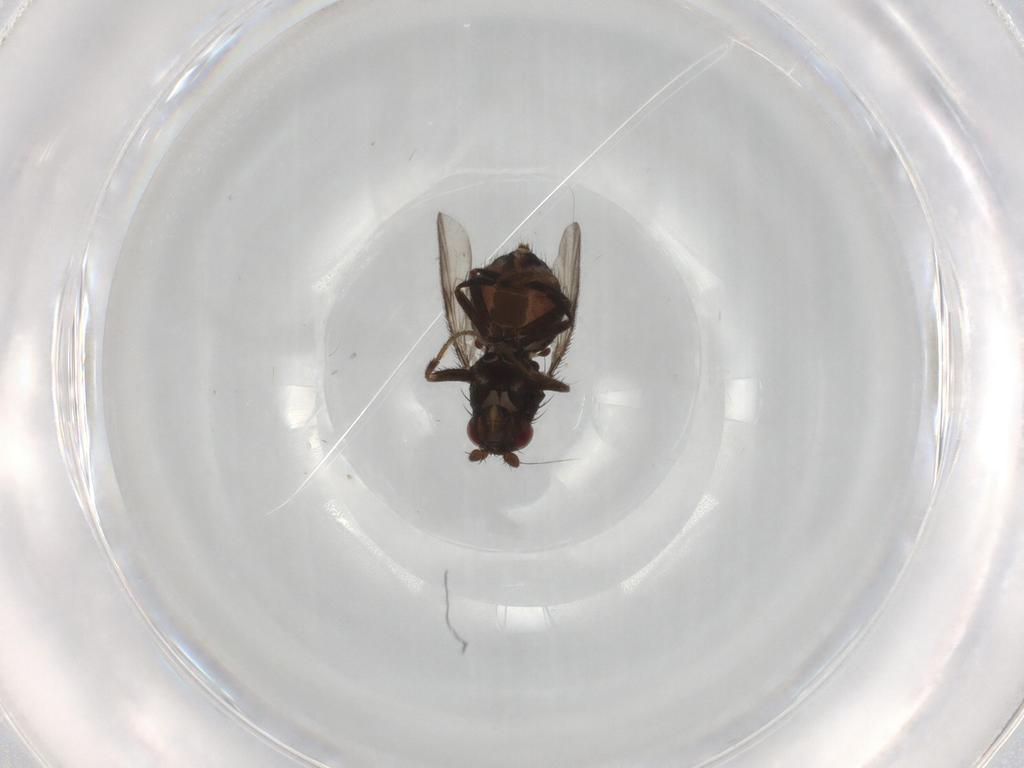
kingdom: Animalia
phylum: Arthropoda
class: Insecta
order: Diptera
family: Sphaeroceridae
